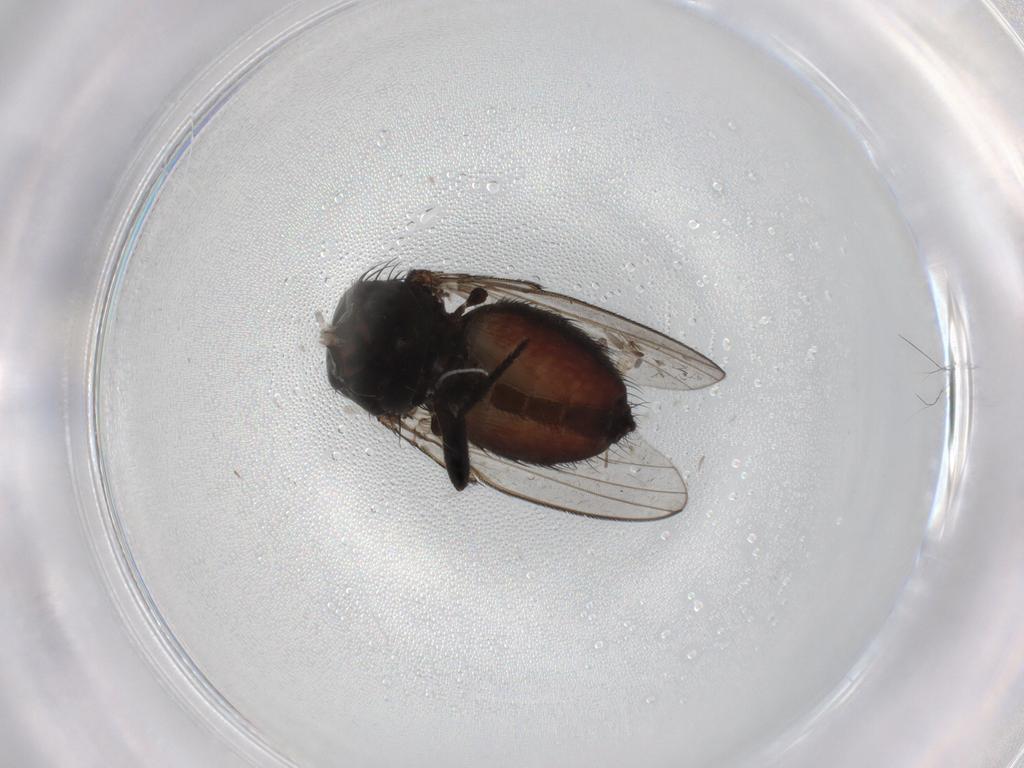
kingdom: Animalia
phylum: Arthropoda
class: Insecta
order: Diptera
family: Milichiidae
